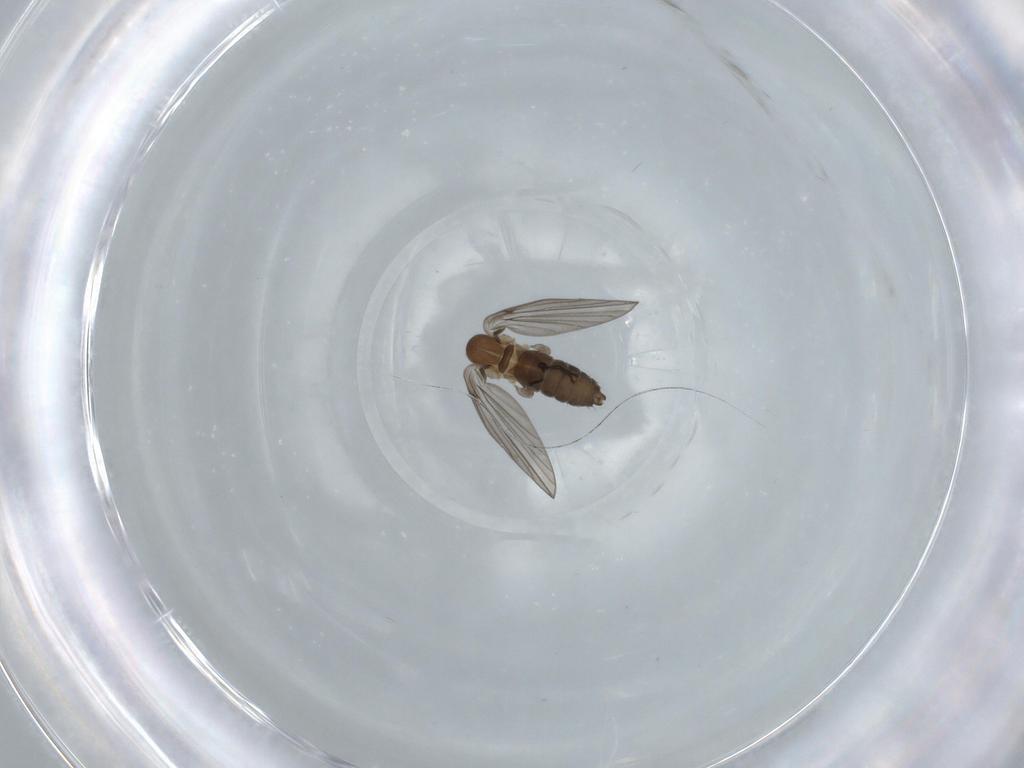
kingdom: Animalia
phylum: Arthropoda
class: Insecta
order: Diptera
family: Psychodidae
